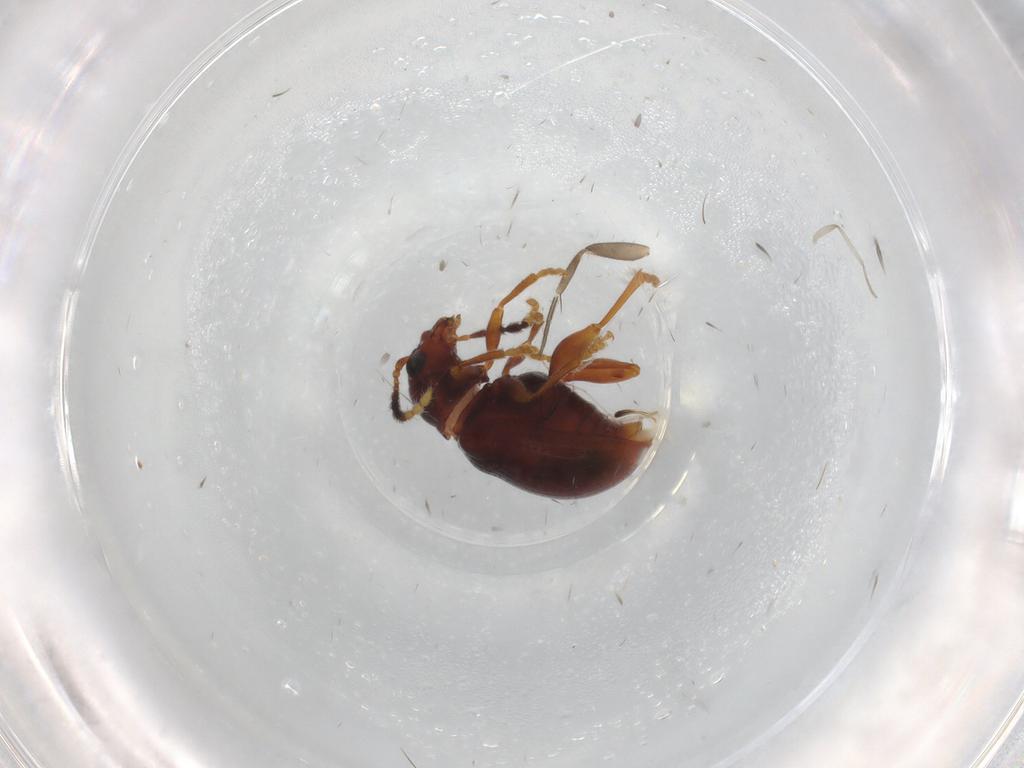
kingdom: Animalia
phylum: Arthropoda
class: Insecta
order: Coleoptera
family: Chrysomelidae
